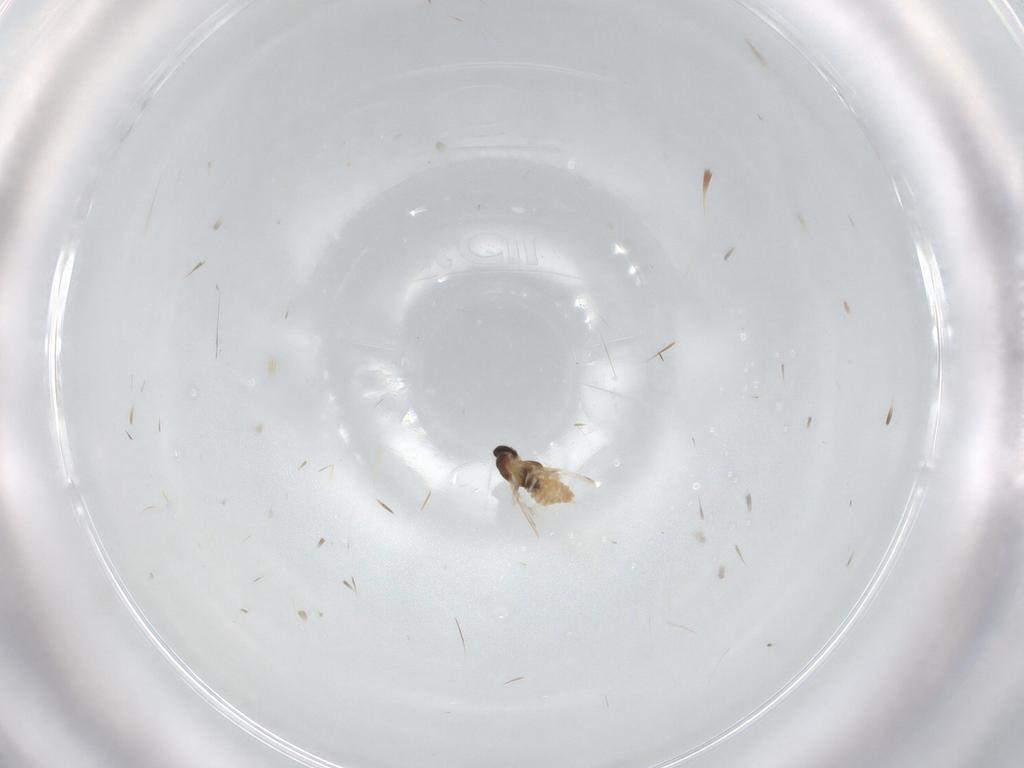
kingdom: Animalia
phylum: Arthropoda
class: Insecta
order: Diptera
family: Cecidomyiidae
